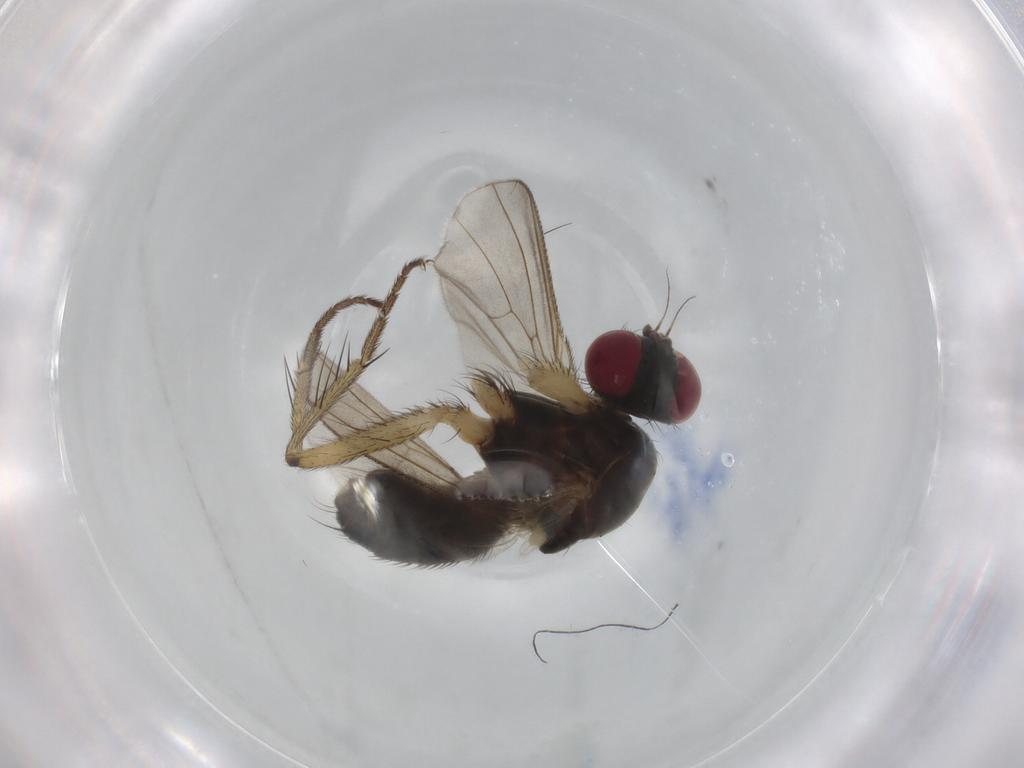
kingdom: Animalia
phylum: Arthropoda
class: Insecta
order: Diptera
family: Muscidae
